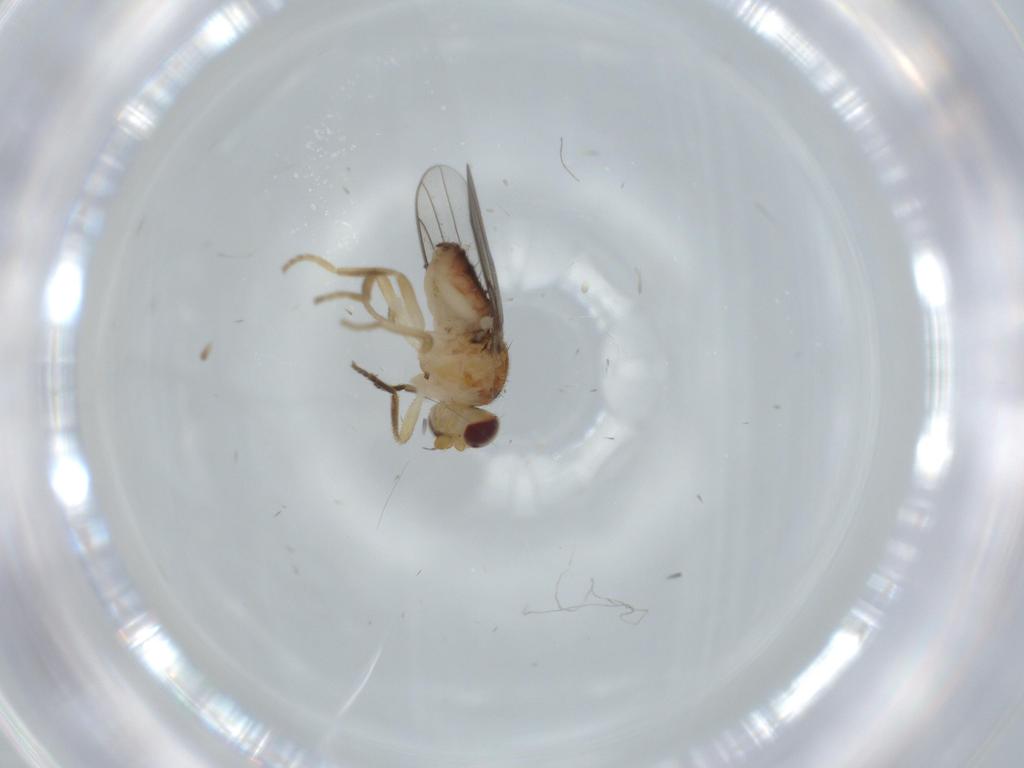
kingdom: Animalia
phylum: Arthropoda
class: Insecta
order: Diptera
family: Chloropidae
